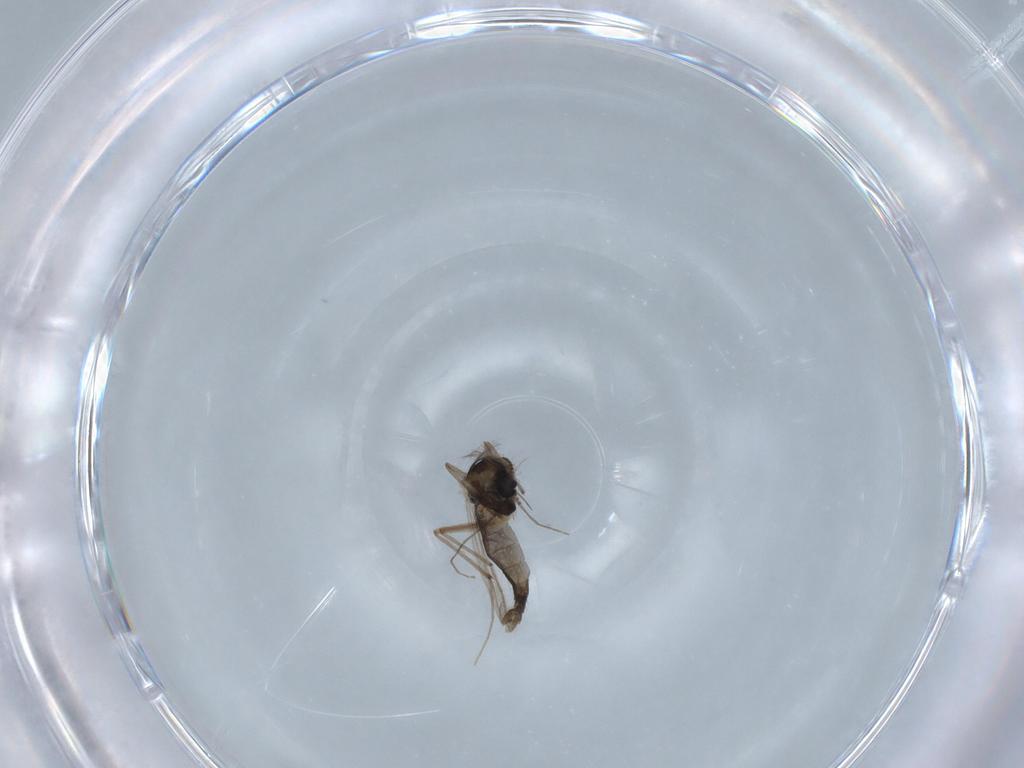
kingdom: Animalia
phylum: Arthropoda
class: Insecta
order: Diptera
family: Chironomidae
